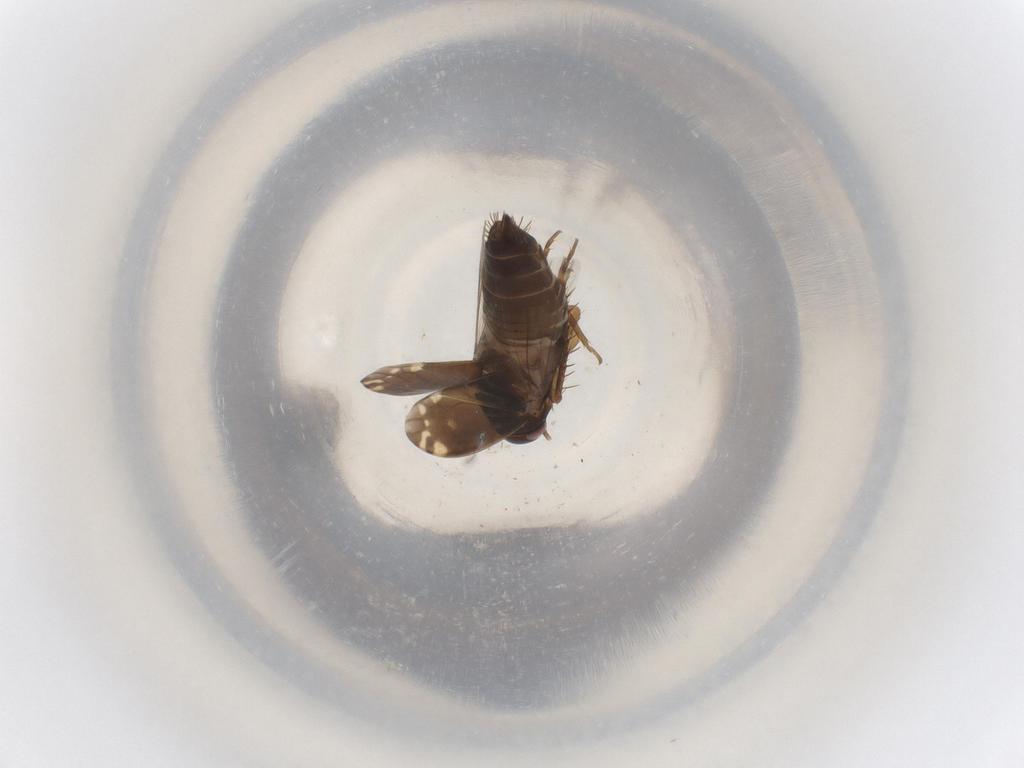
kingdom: Animalia
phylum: Arthropoda
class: Insecta
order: Hemiptera
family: Cicadellidae
